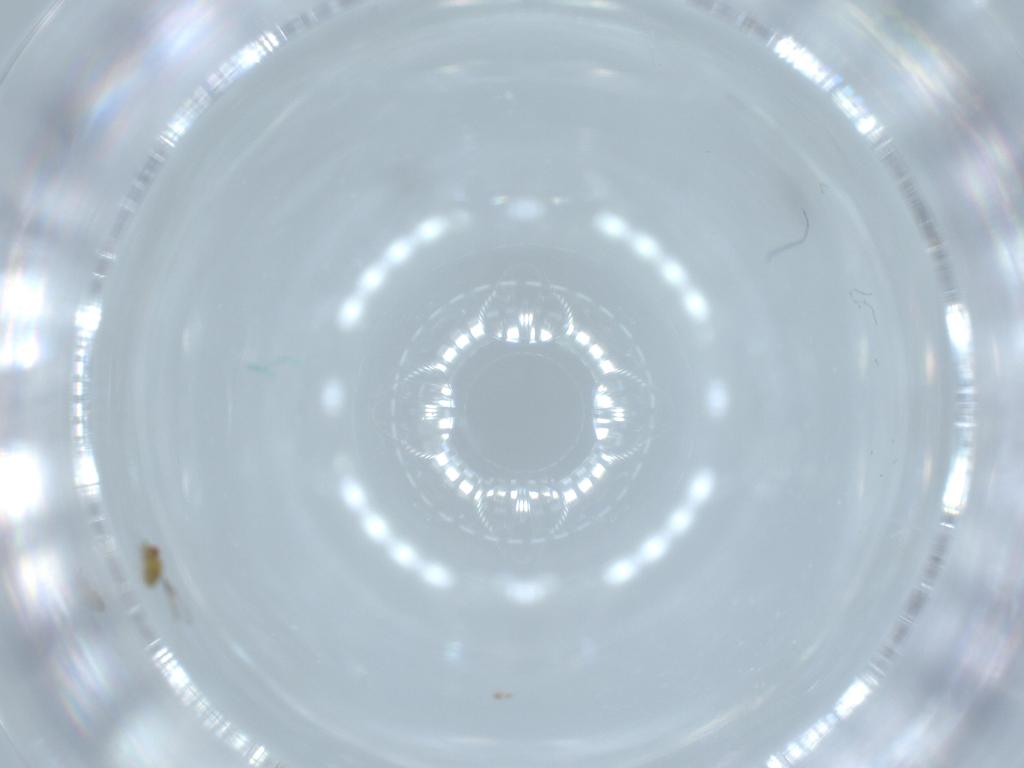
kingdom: Animalia
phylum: Arthropoda
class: Insecta
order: Hymenoptera
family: Trichogrammatidae
